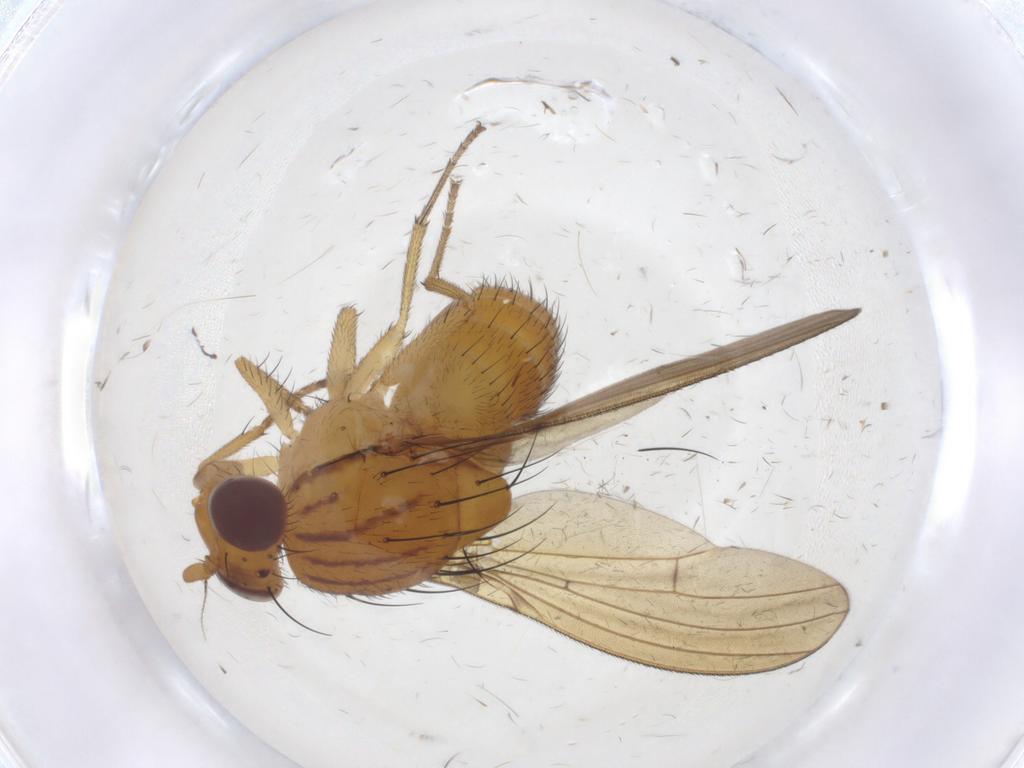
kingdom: Animalia
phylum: Arthropoda
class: Insecta
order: Diptera
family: Lauxaniidae
